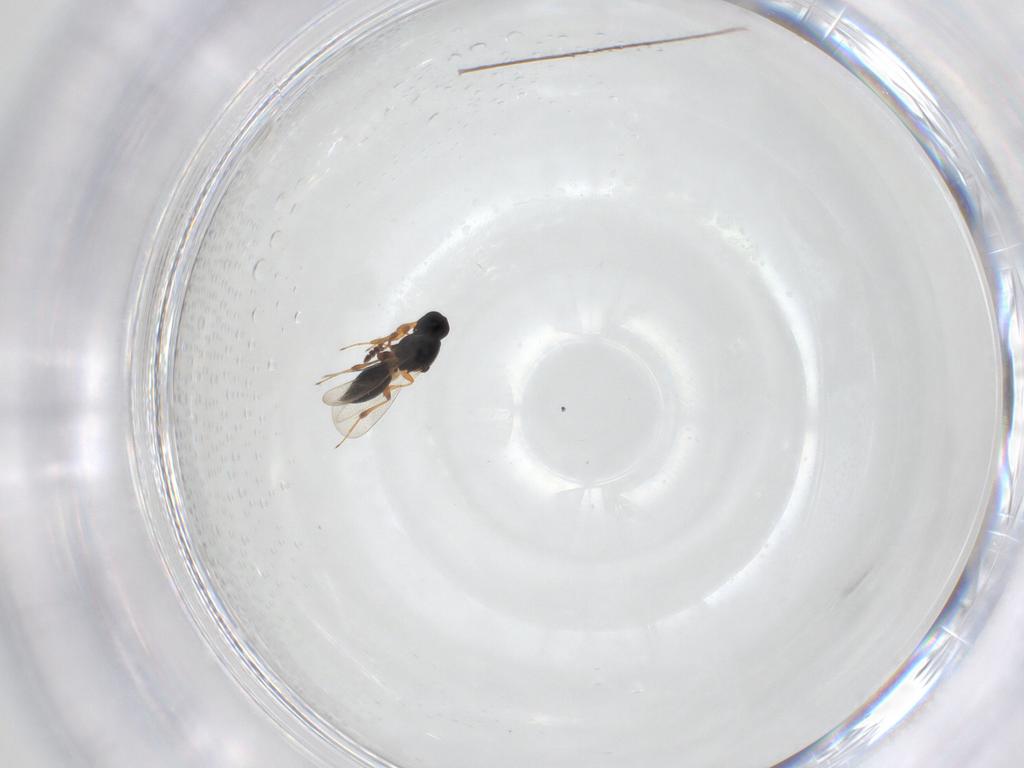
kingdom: Animalia
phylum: Arthropoda
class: Insecta
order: Hymenoptera
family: Platygastridae
